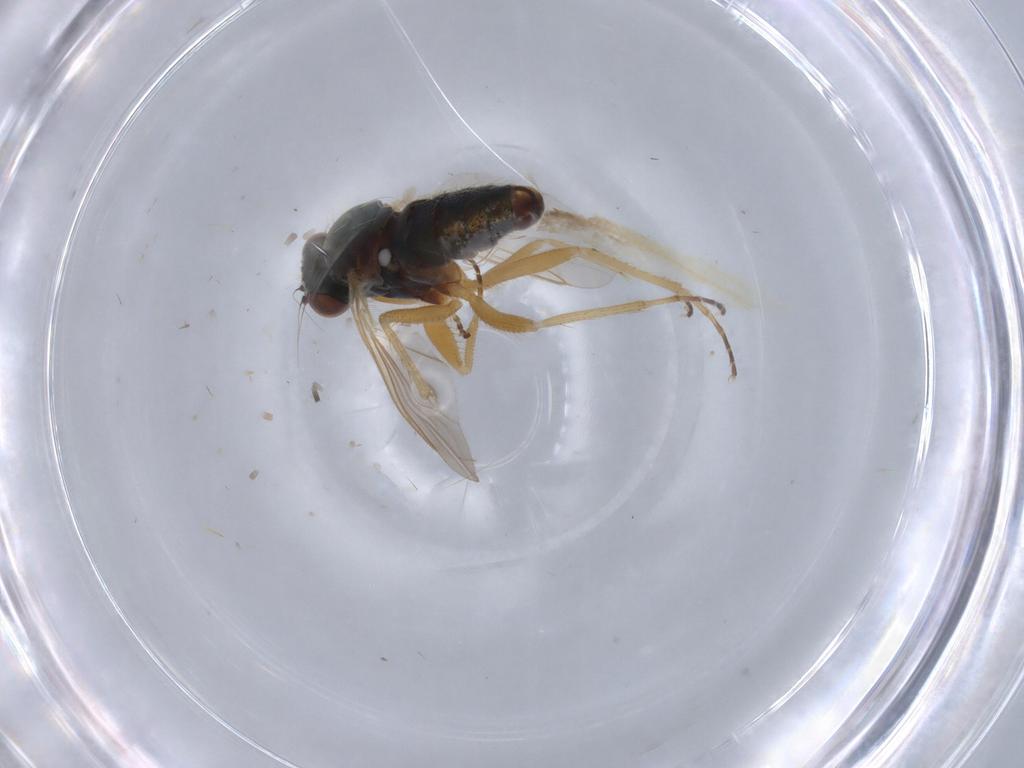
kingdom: Animalia
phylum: Arthropoda
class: Insecta
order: Diptera
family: Dolichopodidae
